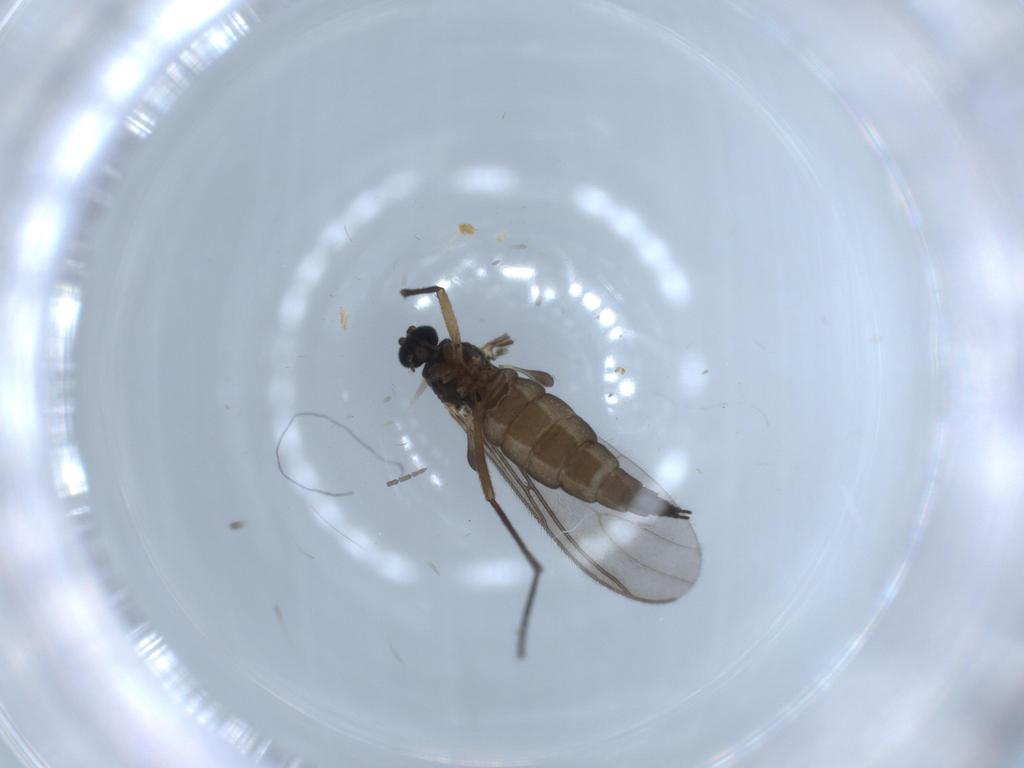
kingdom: Animalia
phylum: Arthropoda
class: Insecta
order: Diptera
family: Sciaridae
